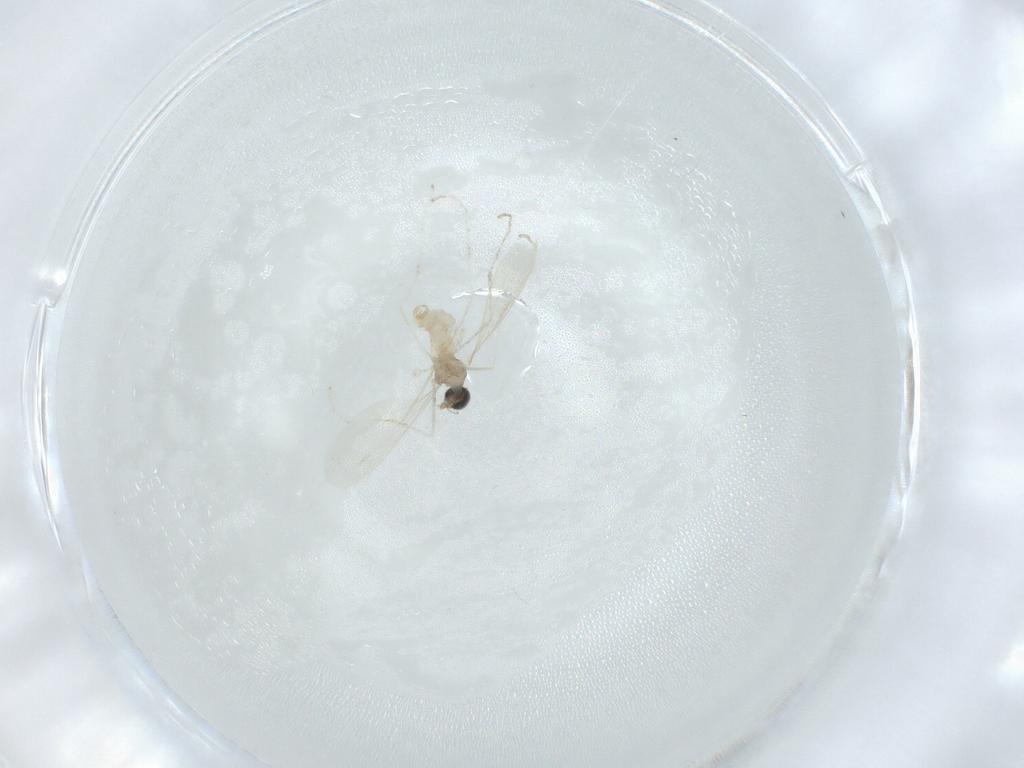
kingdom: Animalia
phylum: Arthropoda
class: Insecta
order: Diptera
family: Cecidomyiidae
